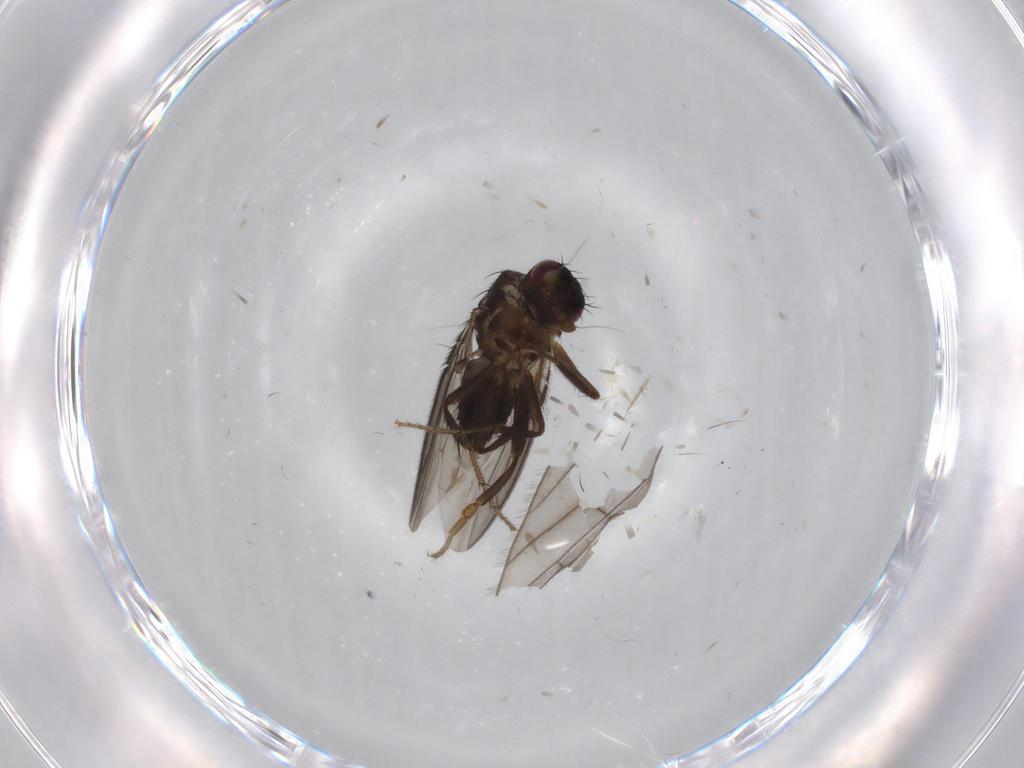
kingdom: Animalia
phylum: Arthropoda
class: Insecta
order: Diptera
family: Sphaeroceridae
